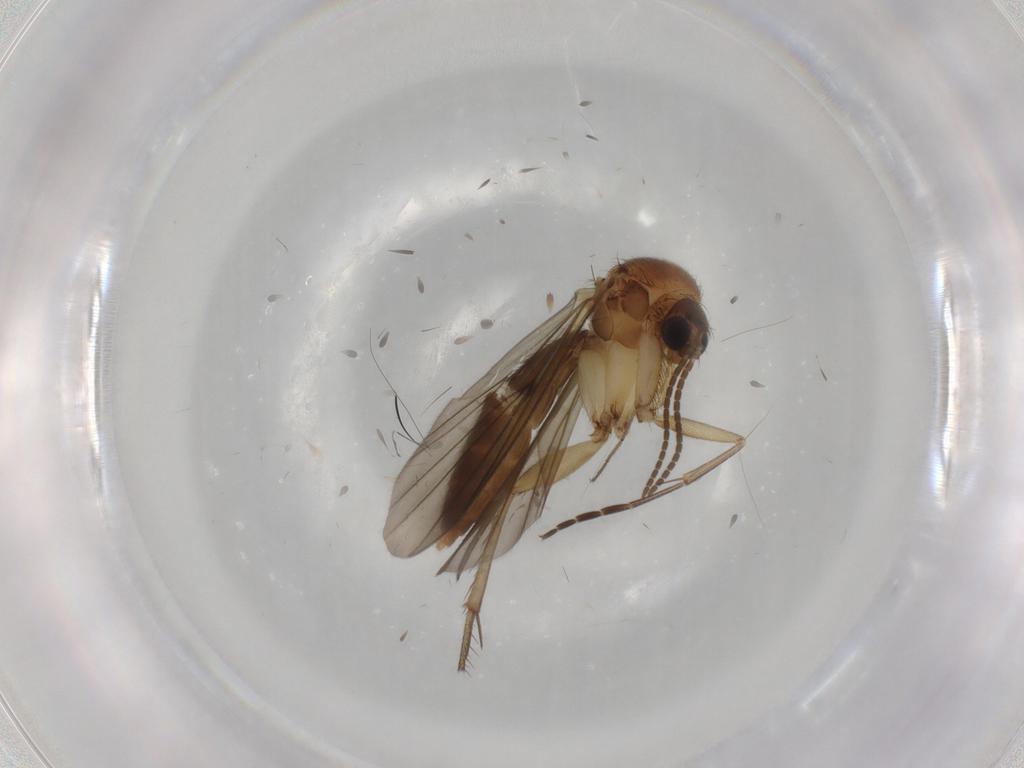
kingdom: Animalia
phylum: Arthropoda
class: Insecta
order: Diptera
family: Mycetophilidae
